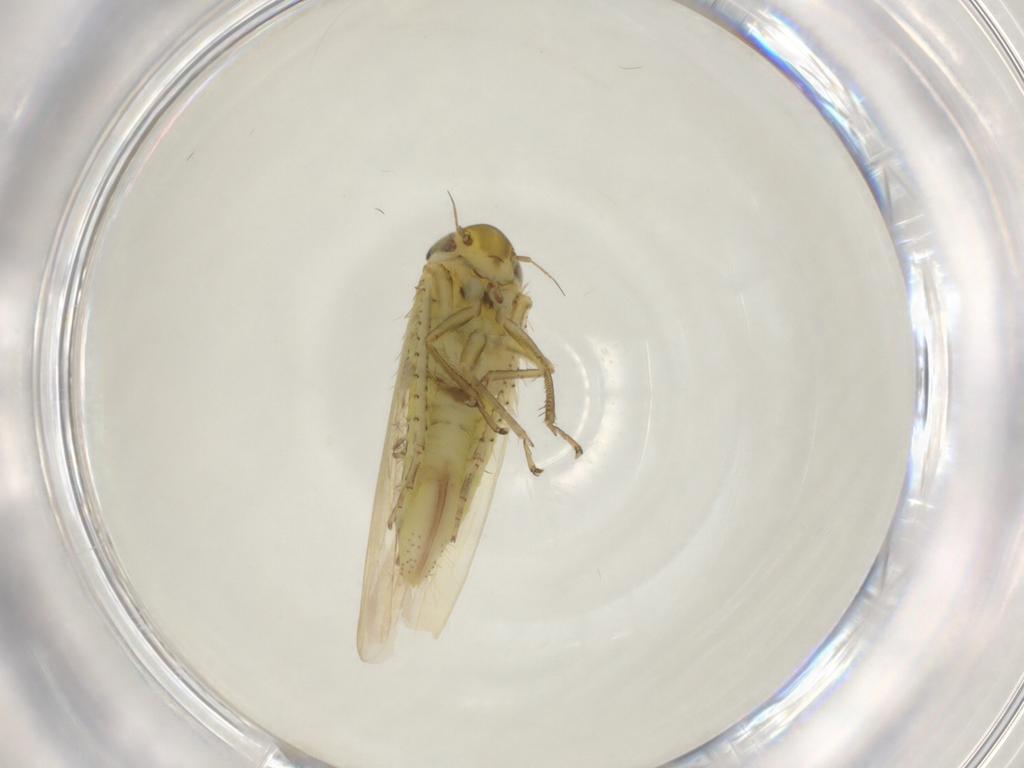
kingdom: Animalia
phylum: Arthropoda
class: Insecta
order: Hemiptera
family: Cicadellidae
